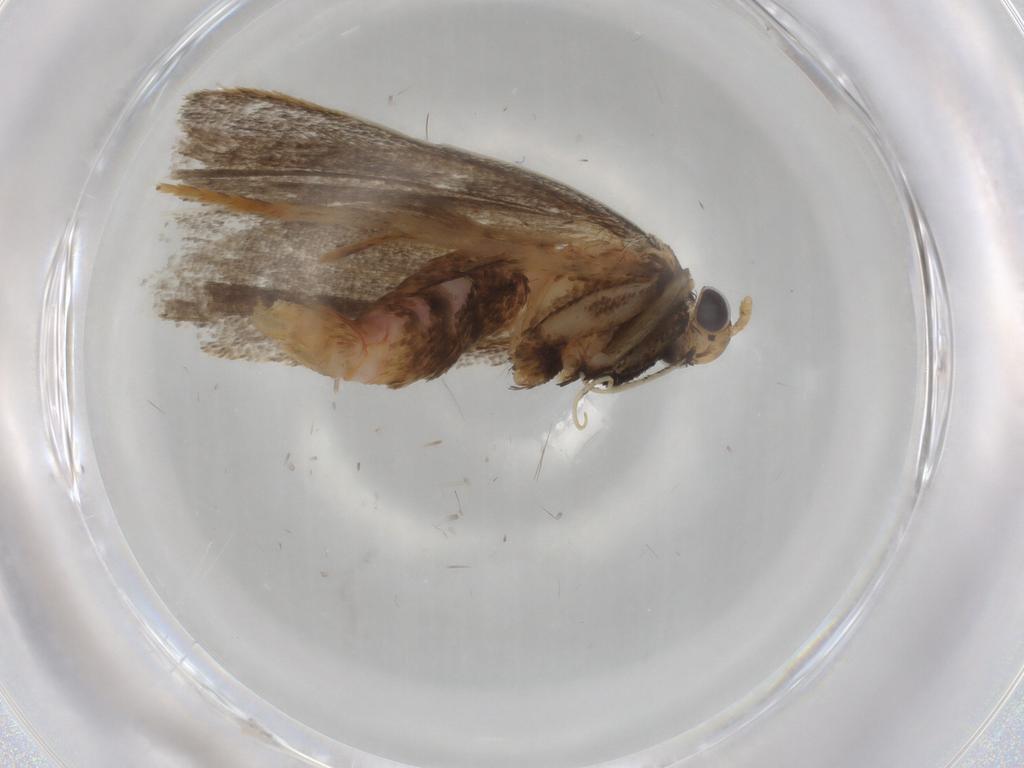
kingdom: Animalia
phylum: Arthropoda
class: Insecta
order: Lepidoptera
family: Lecithoceridae
